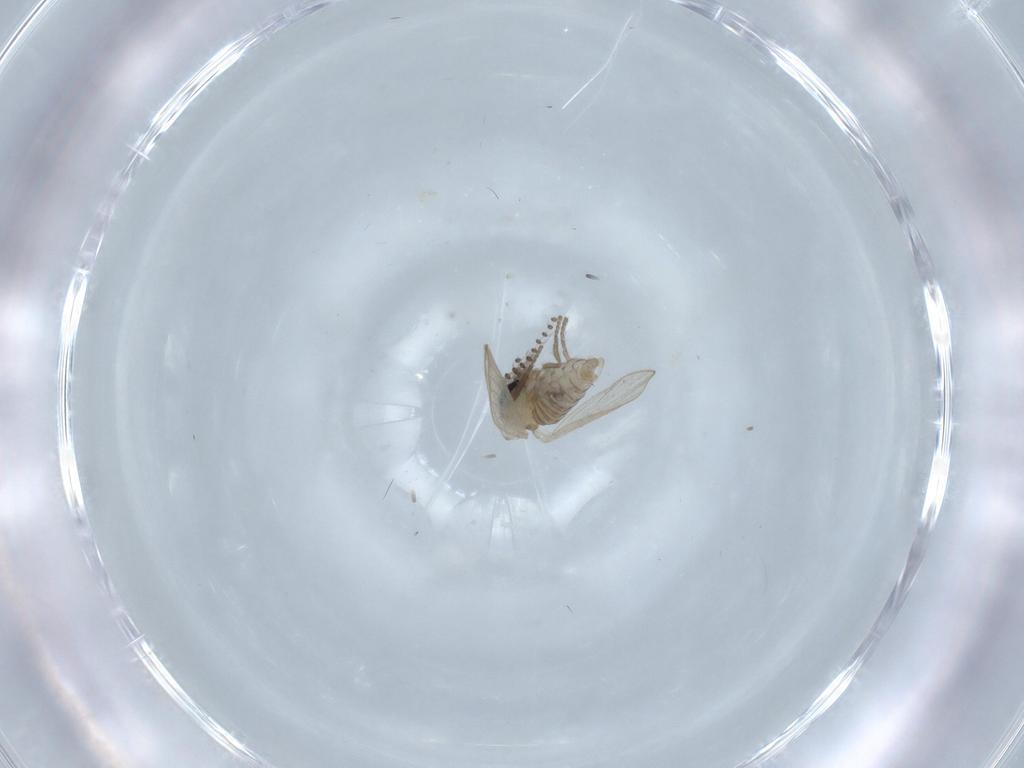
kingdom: Animalia
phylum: Arthropoda
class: Insecta
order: Diptera
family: Psychodidae
